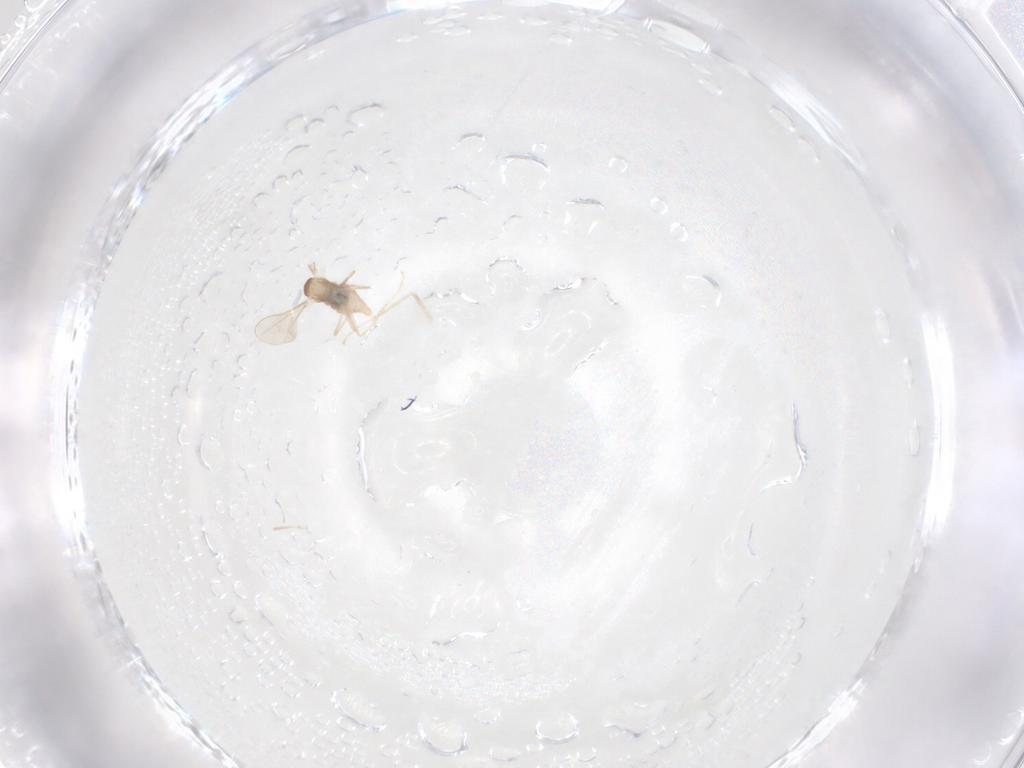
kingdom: Animalia
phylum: Arthropoda
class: Insecta
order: Diptera
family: Cecidomyiidae
